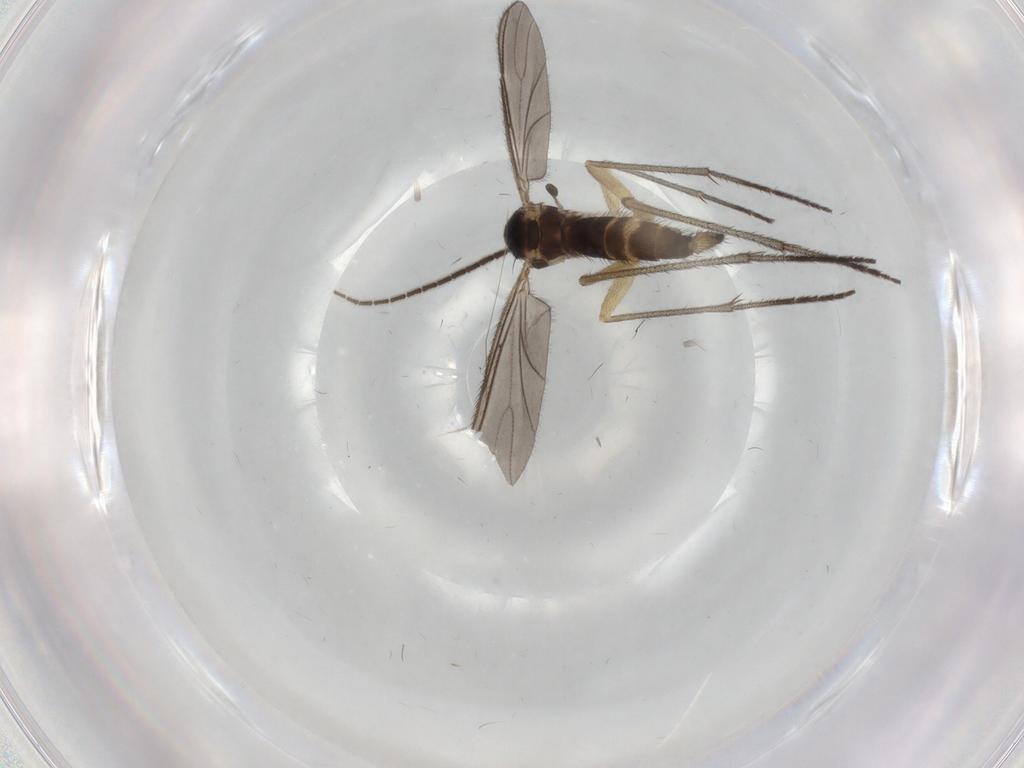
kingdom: Animalia
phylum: Arthropoda
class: Insecta
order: Diptera
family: Sciaridae
